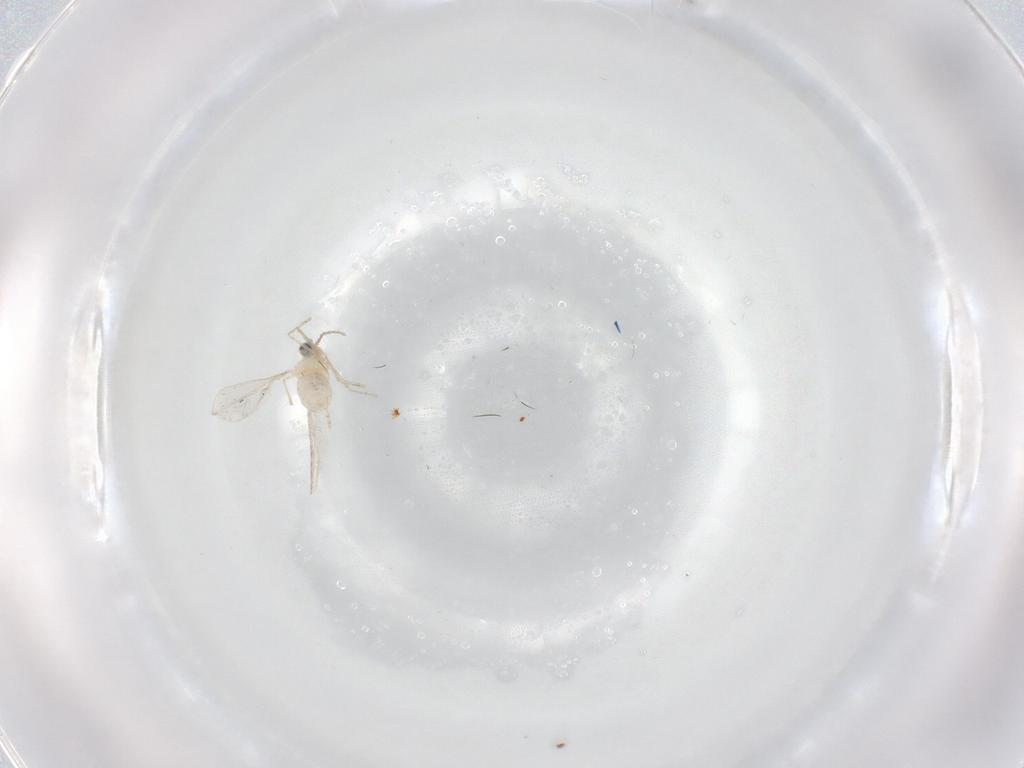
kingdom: Animalia
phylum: Arthropoda
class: Insecta
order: Diptera
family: Cecidomyiidae
